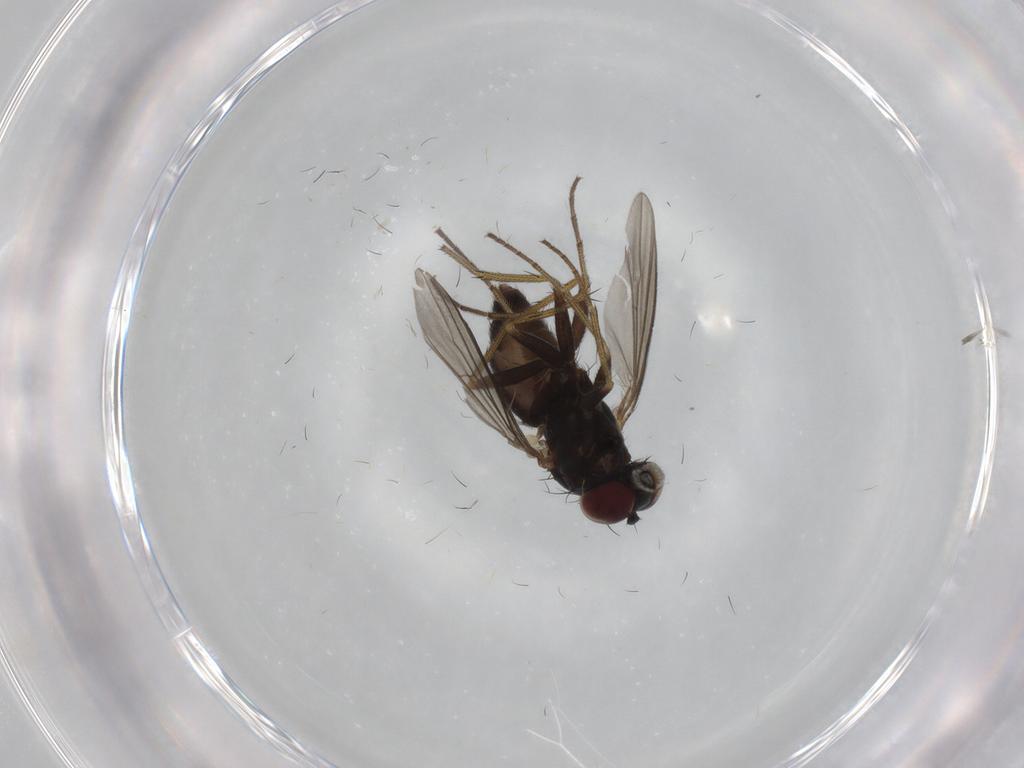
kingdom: Animalia
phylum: Arthropoda
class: Insecta
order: Diptera
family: Dolichopodidae
